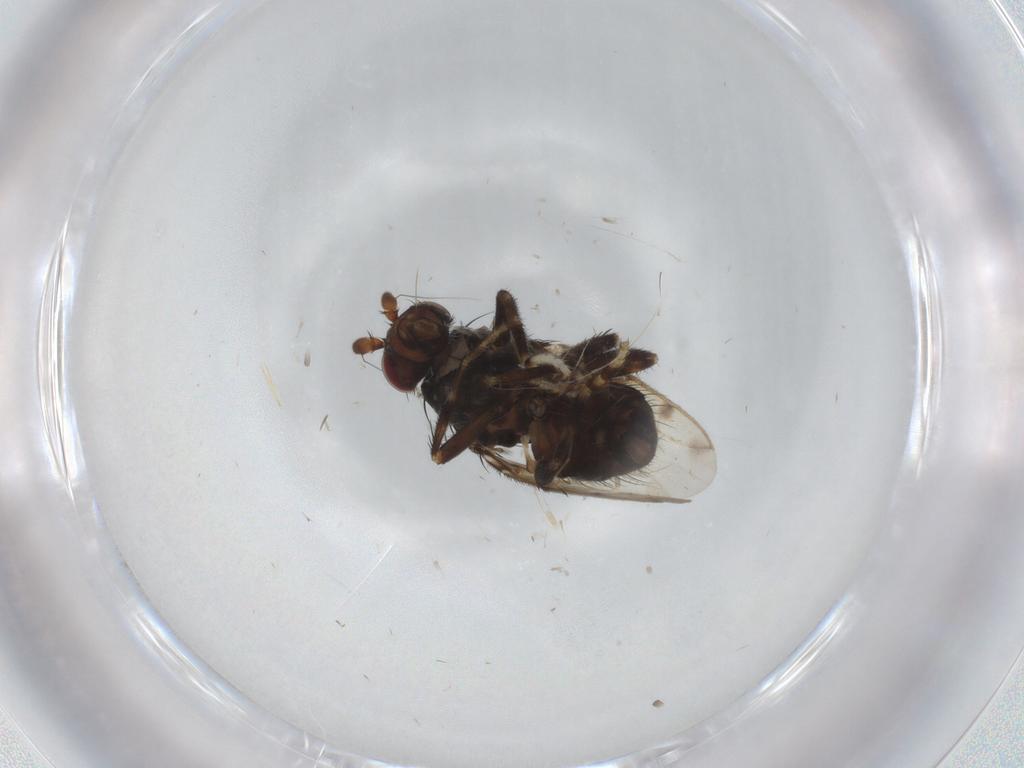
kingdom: Animalia
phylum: Arthropoda
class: Insecta
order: Diptera
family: Sphaeroceridae
